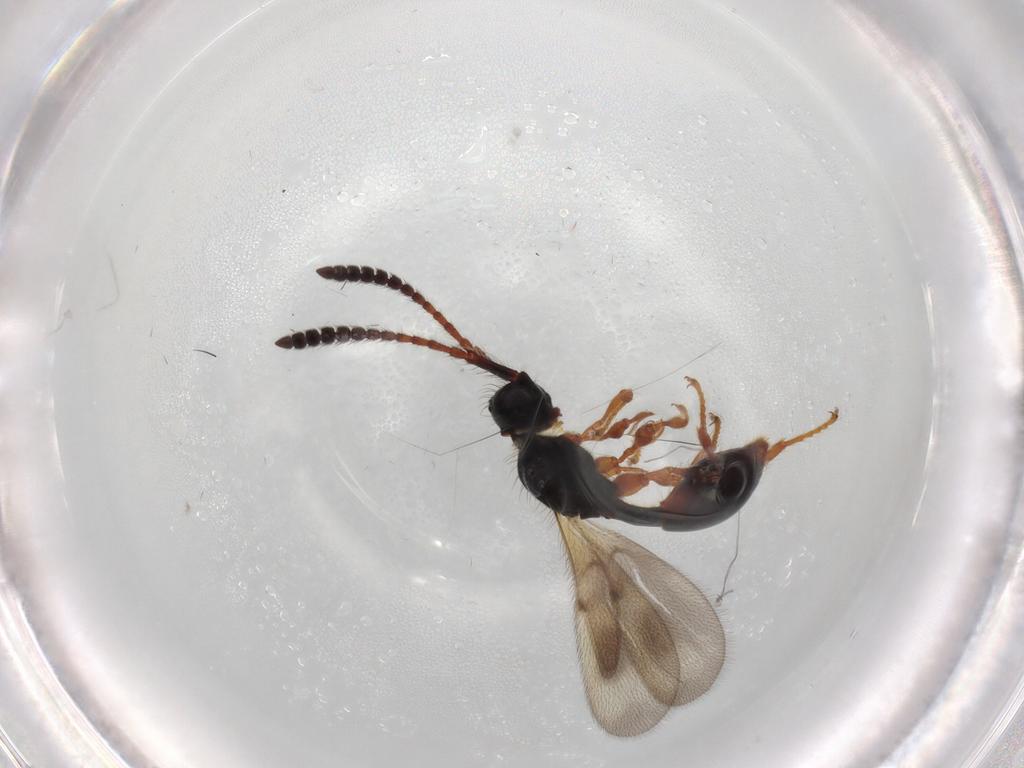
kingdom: Animalia
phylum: Arthropoda
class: Insecta
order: Hymenoptera
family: Diapriidae
